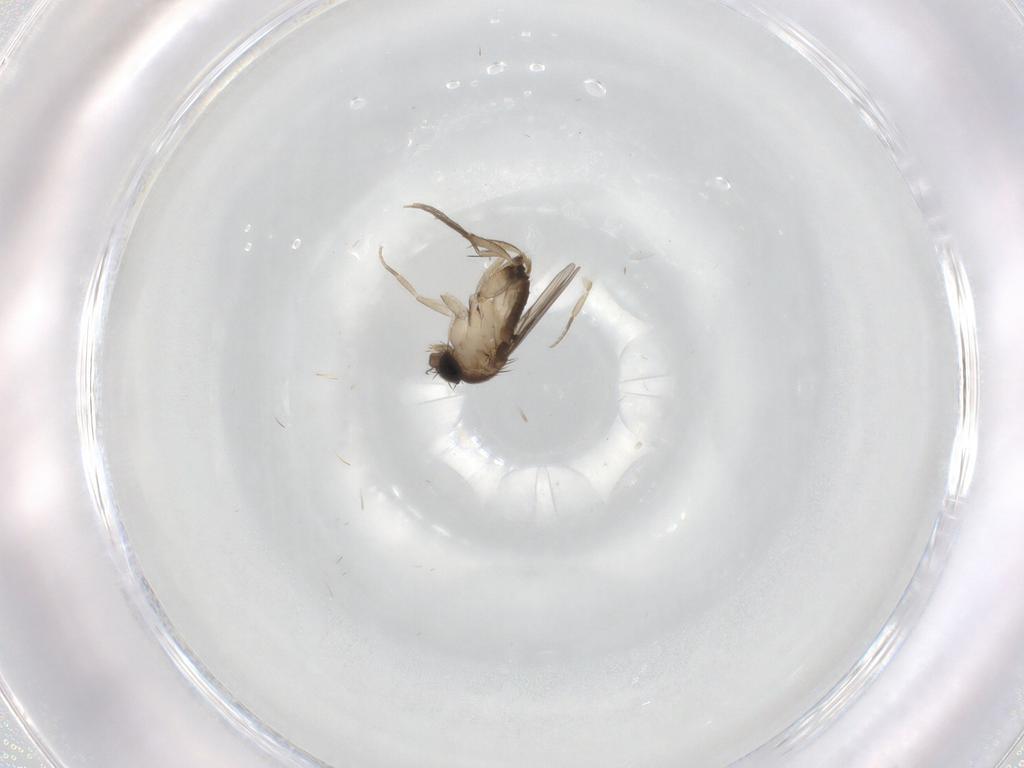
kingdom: Animalia
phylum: Arthropoda
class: Insecta
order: Diptera
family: Phoridae
